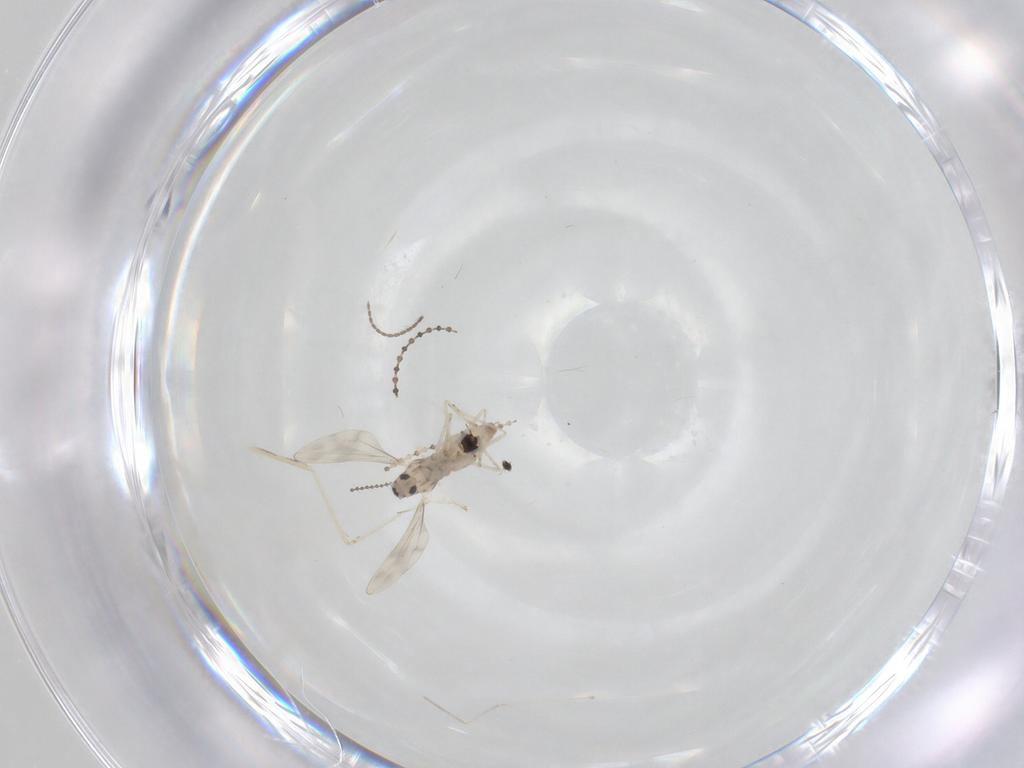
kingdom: Animalia
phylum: Arthropoda
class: Insecta
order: Diptera
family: Cecidomyiidae
